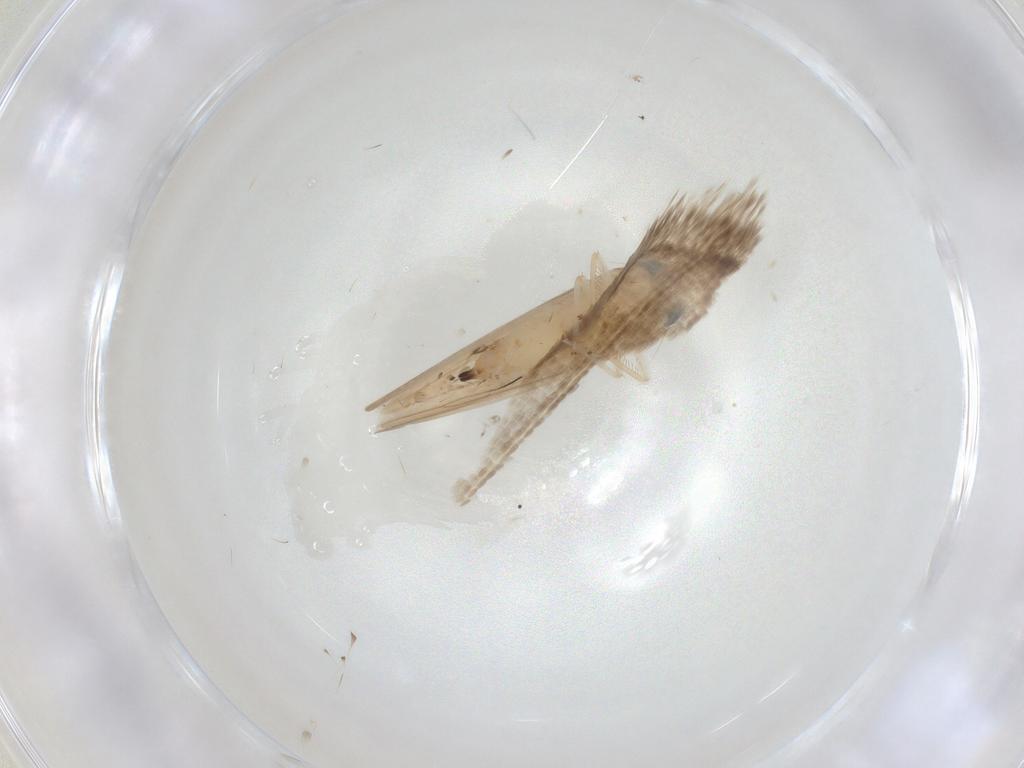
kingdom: Animalia
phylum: Arthropoda
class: Insecta
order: Hemiptera
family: Cicadellidae
